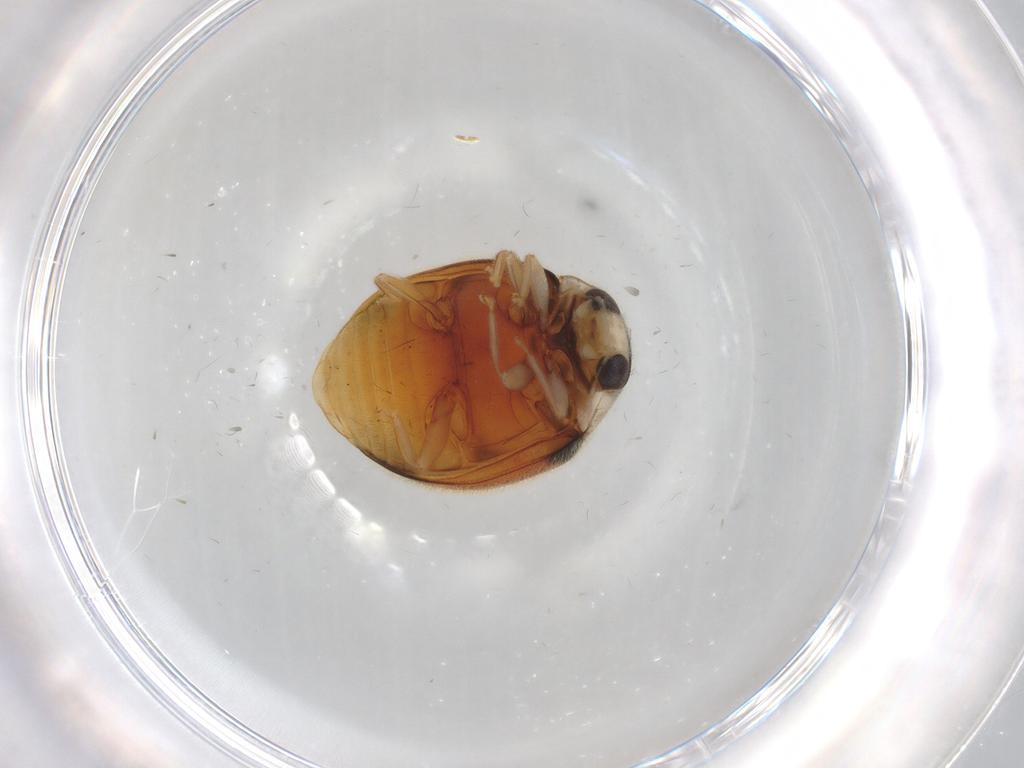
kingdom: Animalia
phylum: Arthropoda
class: Insecta
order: Coleoptera
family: Coccinellidae
